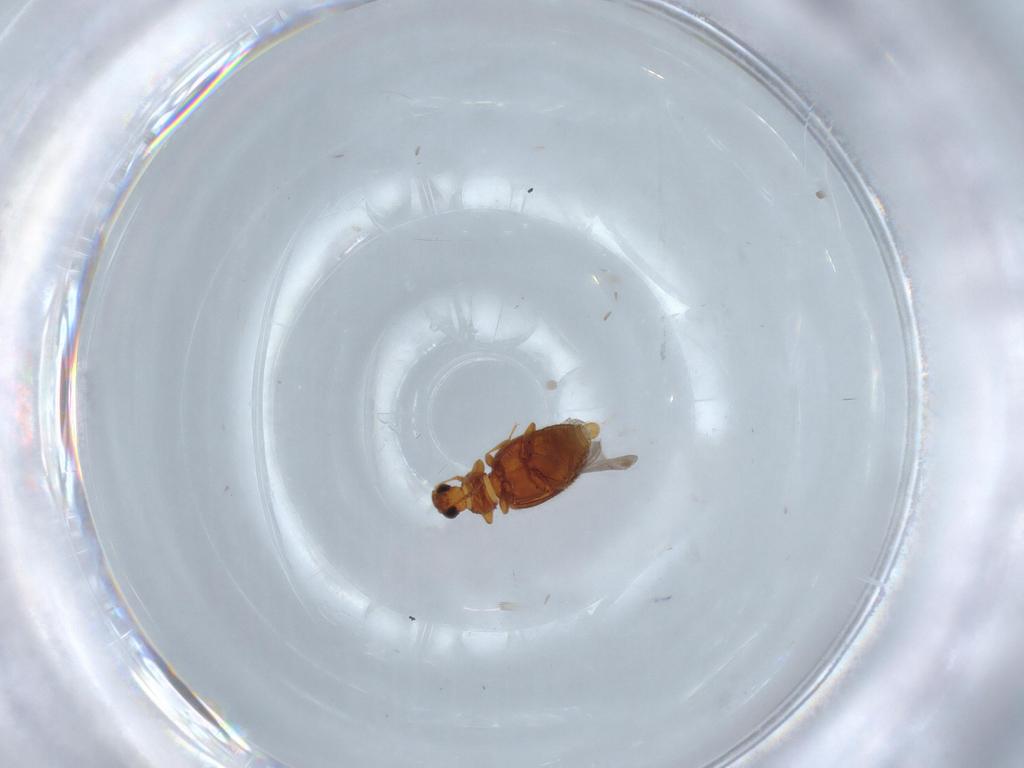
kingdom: Animalia
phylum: Arthropoda
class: Insecta
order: Coleoptera
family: Latridiidae
